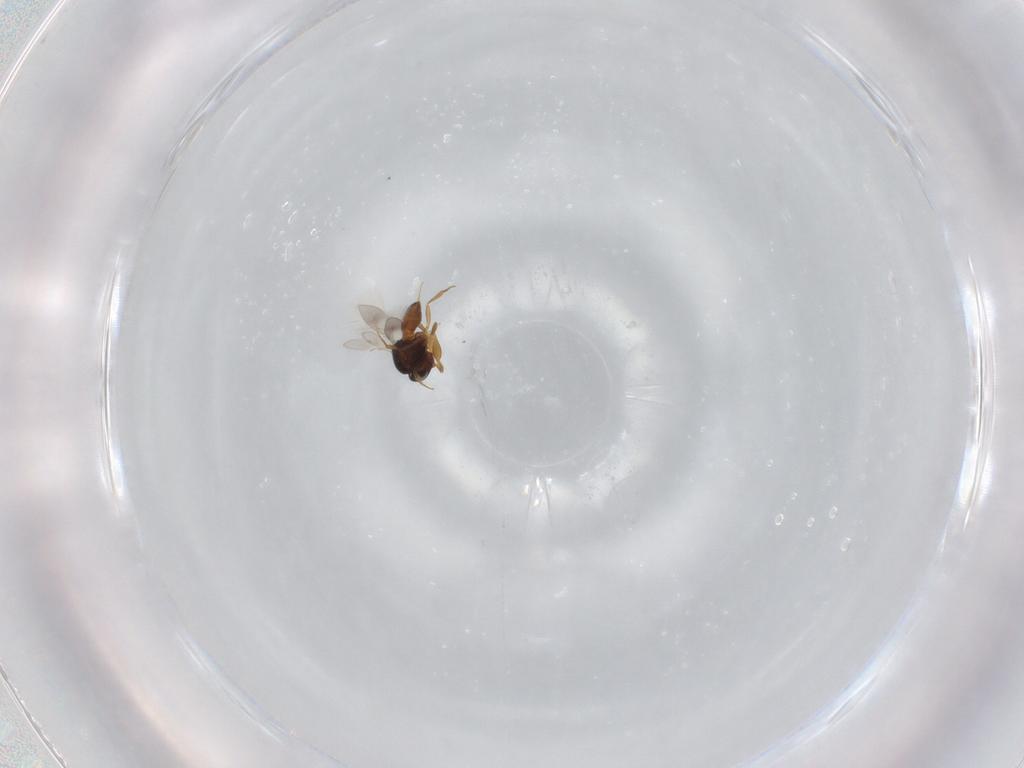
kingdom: Animalia
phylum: Arthropoda
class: Insecta
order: Hymenoptera
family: Scelionidae
